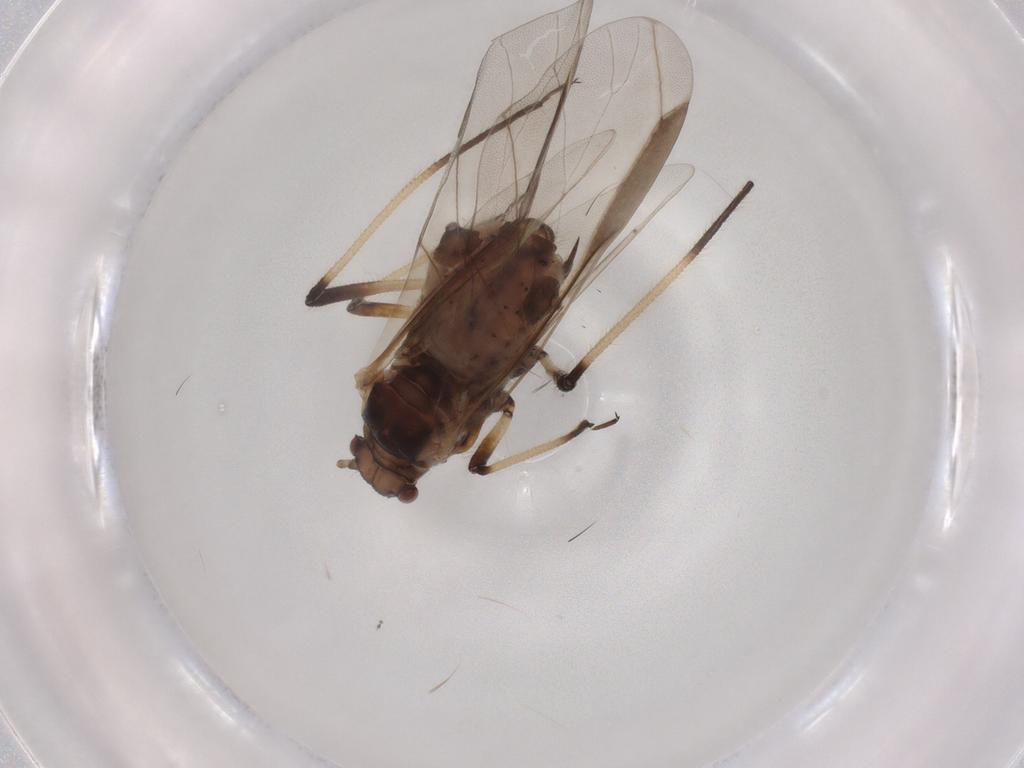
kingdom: Animalia
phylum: Arthropoda
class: Insecta
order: Hemiptera
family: Aphididae
